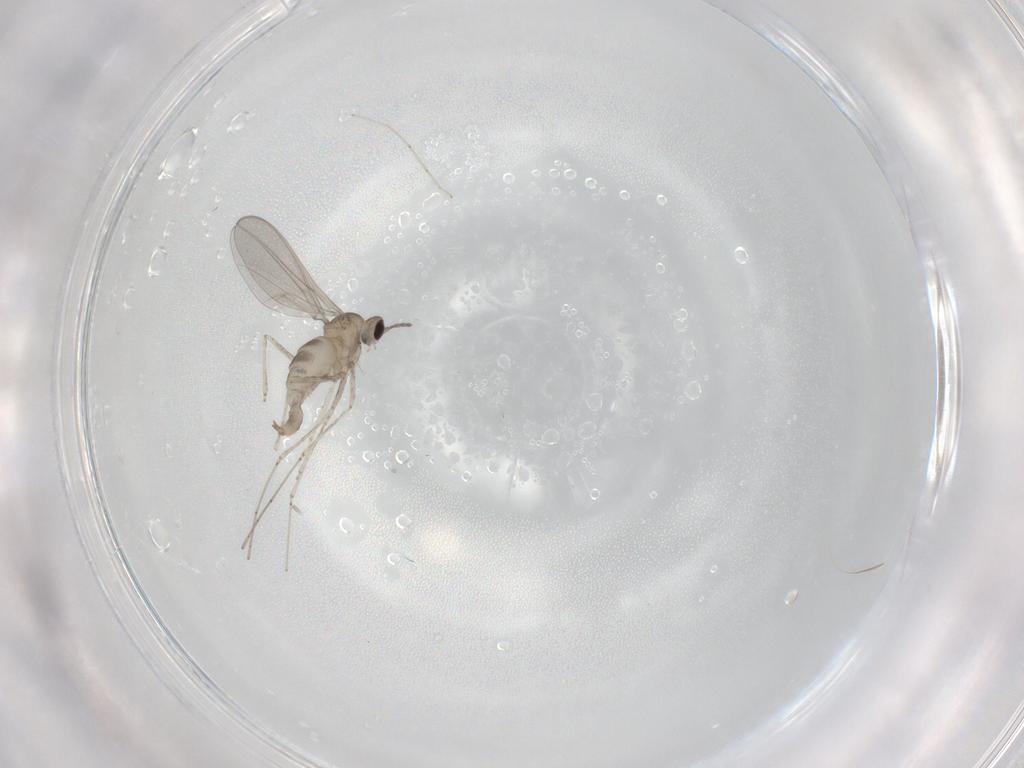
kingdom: Animalia
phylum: Arthropoda
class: Insecta
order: Diptera
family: Cecidomyiidae
